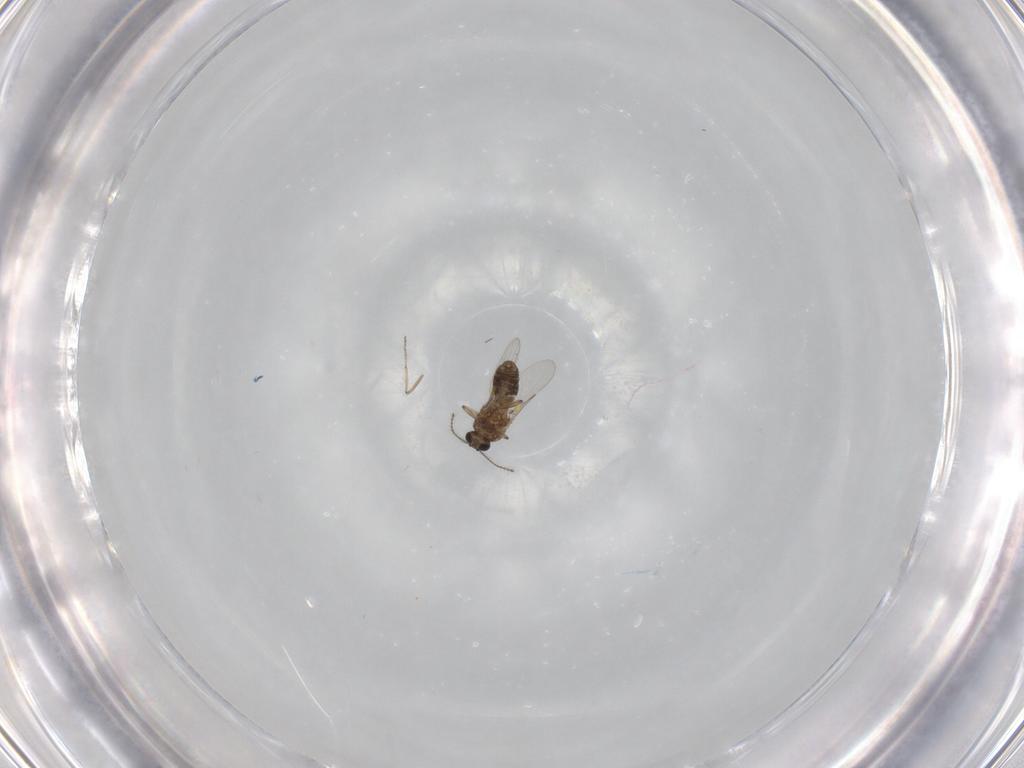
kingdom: Animalia
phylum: Arthropoda
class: Insecta
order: Diptera
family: Ceratopogonidae
